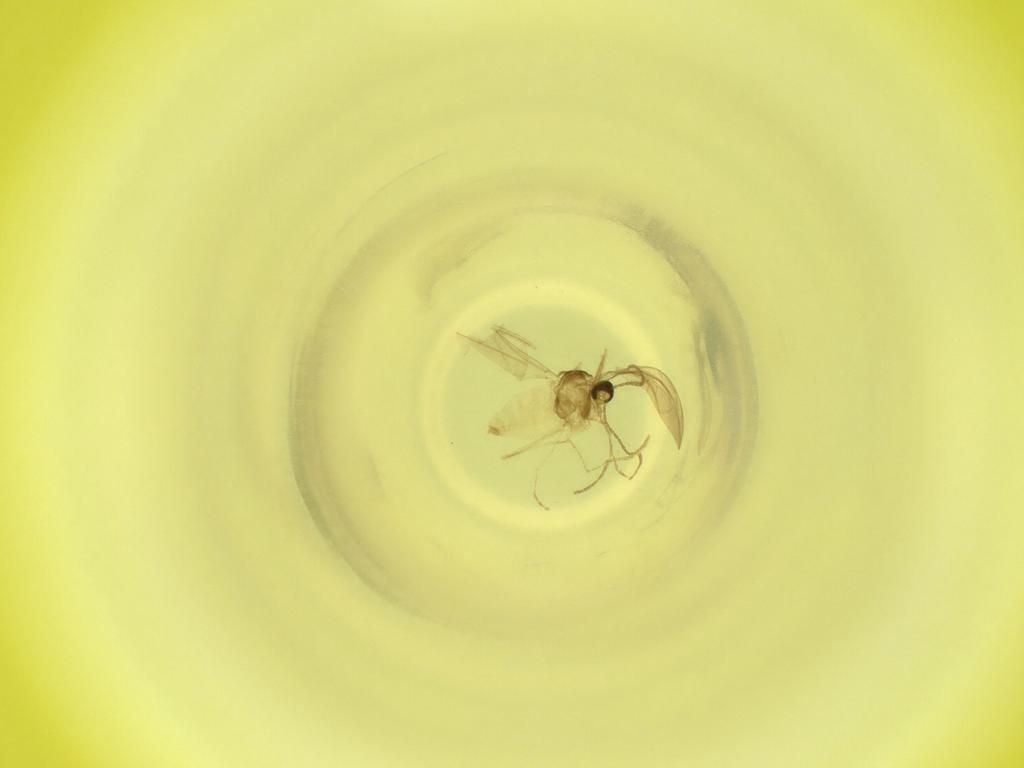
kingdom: Animalia
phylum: Arthropoda
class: Insecta
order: Diptera
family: Cecidomyiidae
